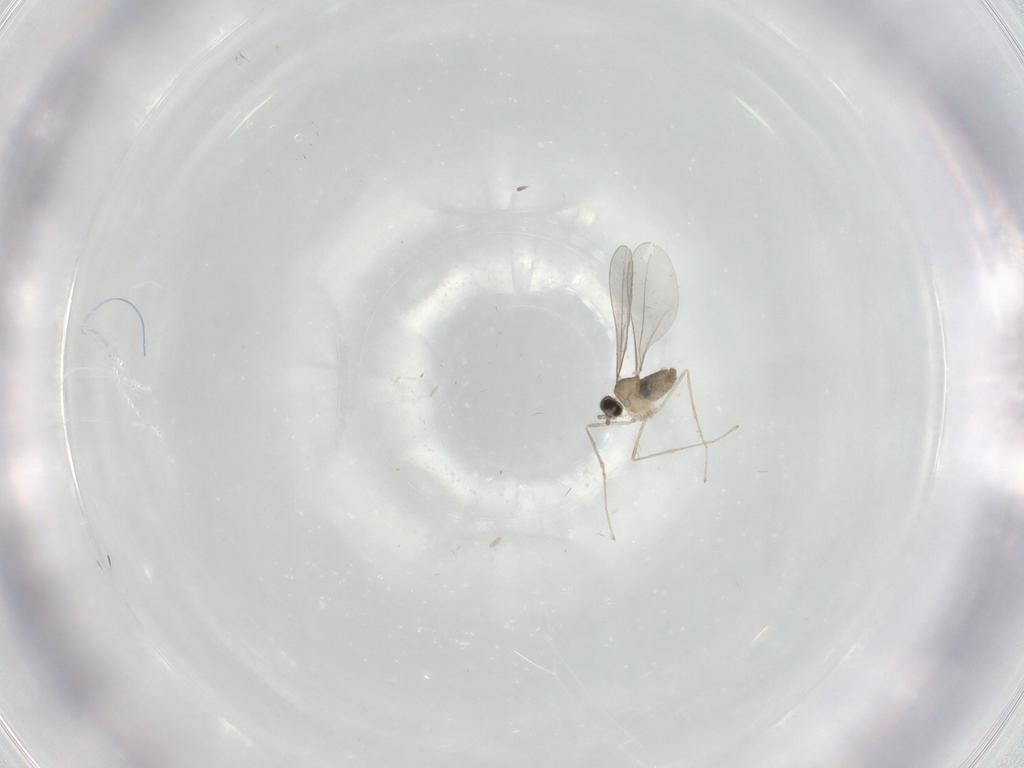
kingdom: Animalia
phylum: Arthropoda
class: Insecta
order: Diptera
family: Cecidomyiidae
